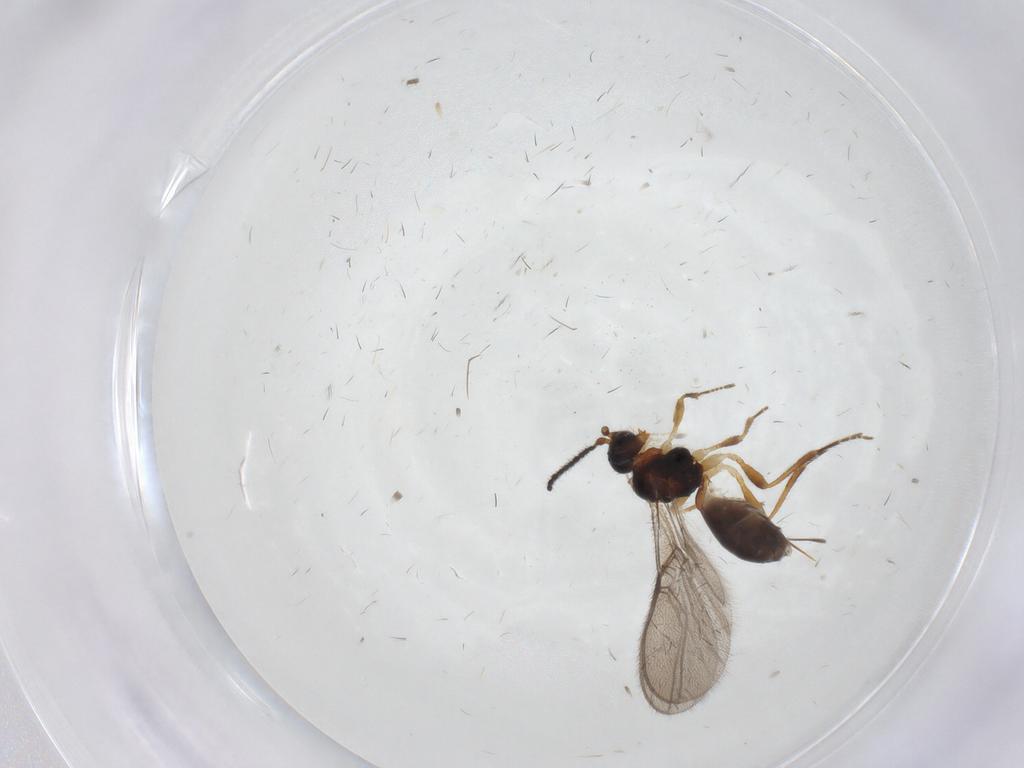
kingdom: Animalia
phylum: Arthropoda
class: Insecta
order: Hymenoptera
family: Braconidae
